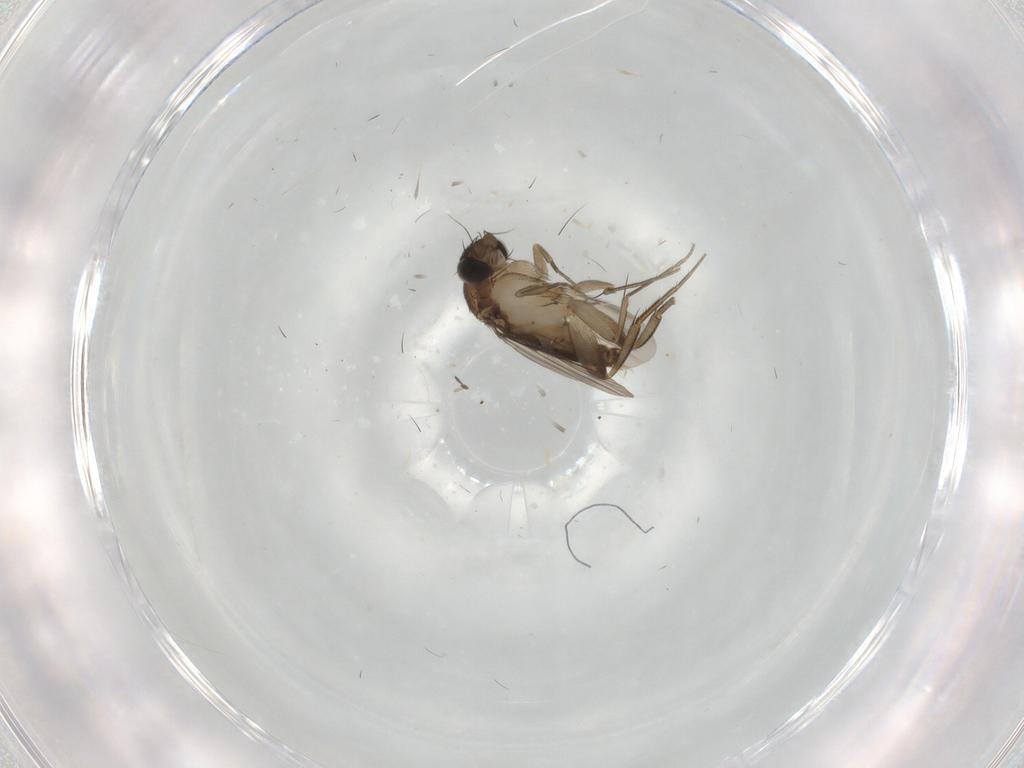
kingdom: Animalia
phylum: Arthropoda
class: Insecta
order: Diptera
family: Phoridae
